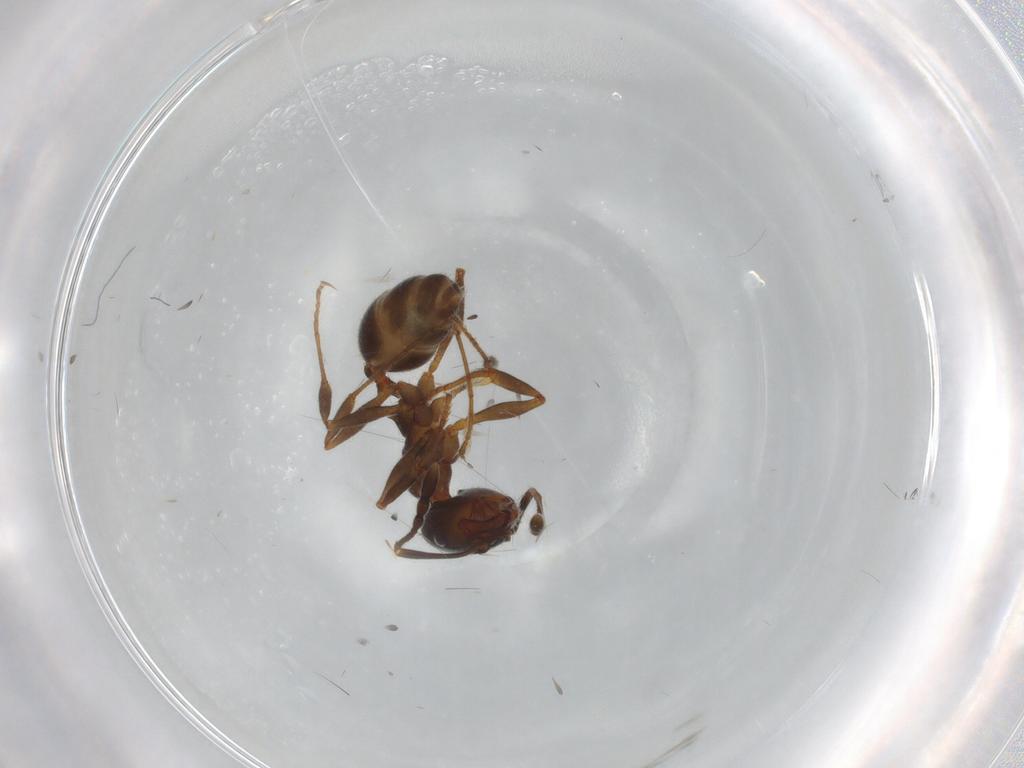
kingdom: Animalia
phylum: Arthropoda
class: Insecta
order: Hymenoptera
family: Formicidae
